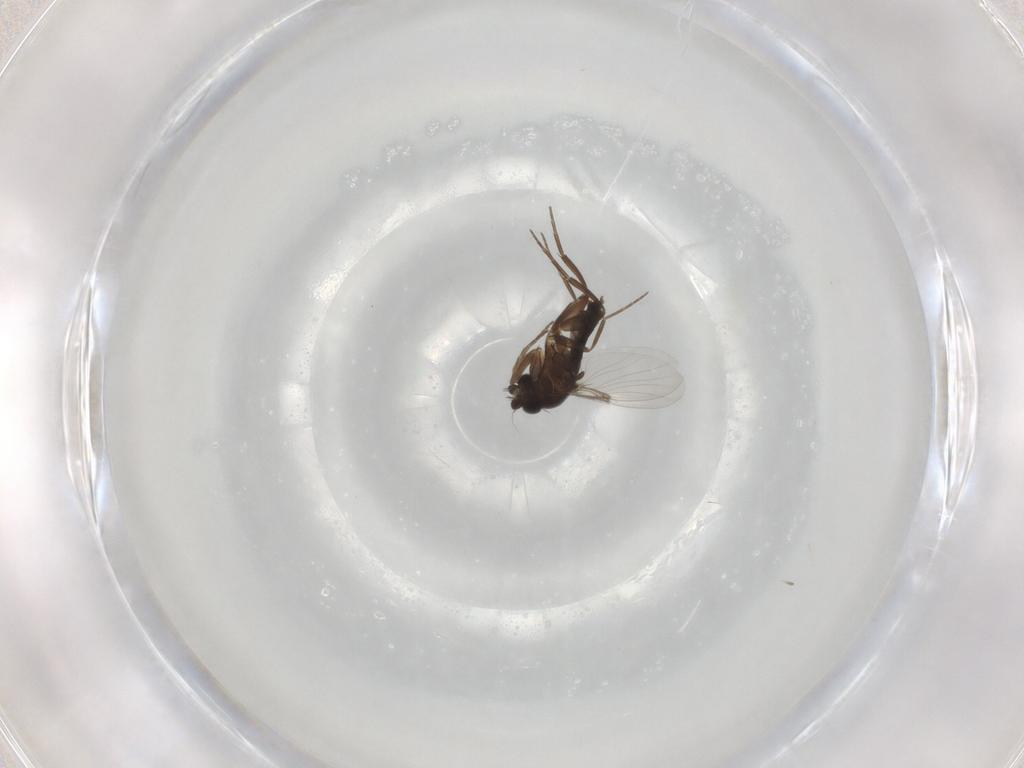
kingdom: Animalia
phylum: Arthropoda
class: Insecta
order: Diptera
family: Phoridae
